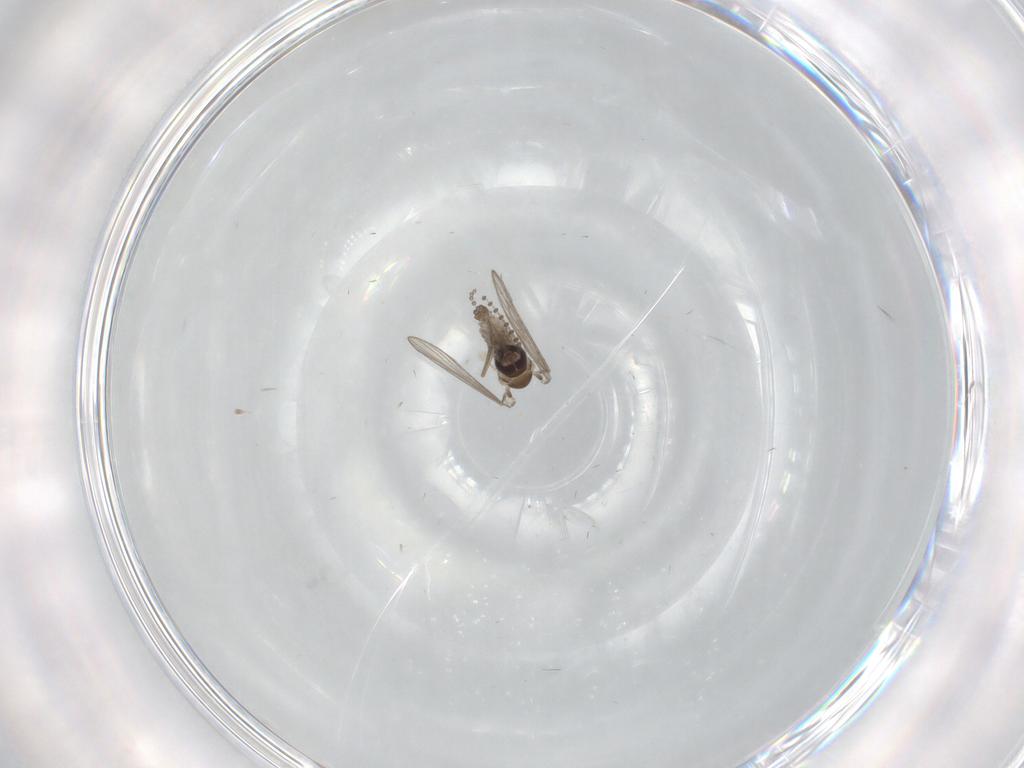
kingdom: Animalia
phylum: Arthropoda
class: Insecta
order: Diptera
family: Psychodidae
